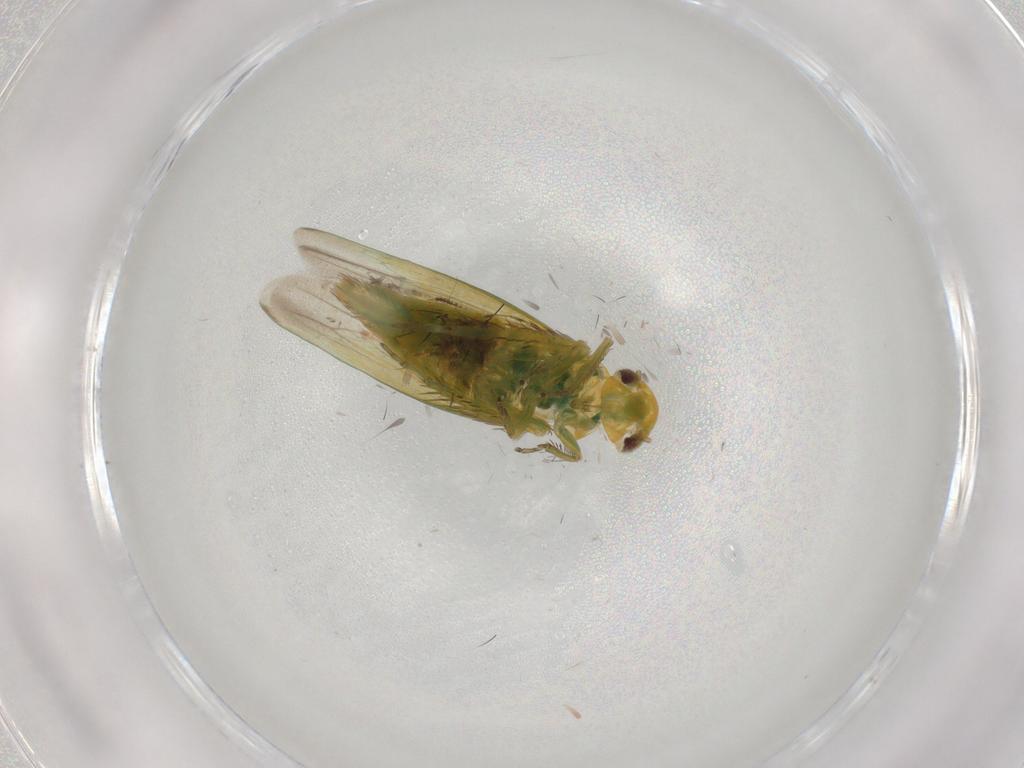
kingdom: Animalia
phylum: Arthropoda
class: Insecta
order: Hemiptera
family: Cicadellidae
